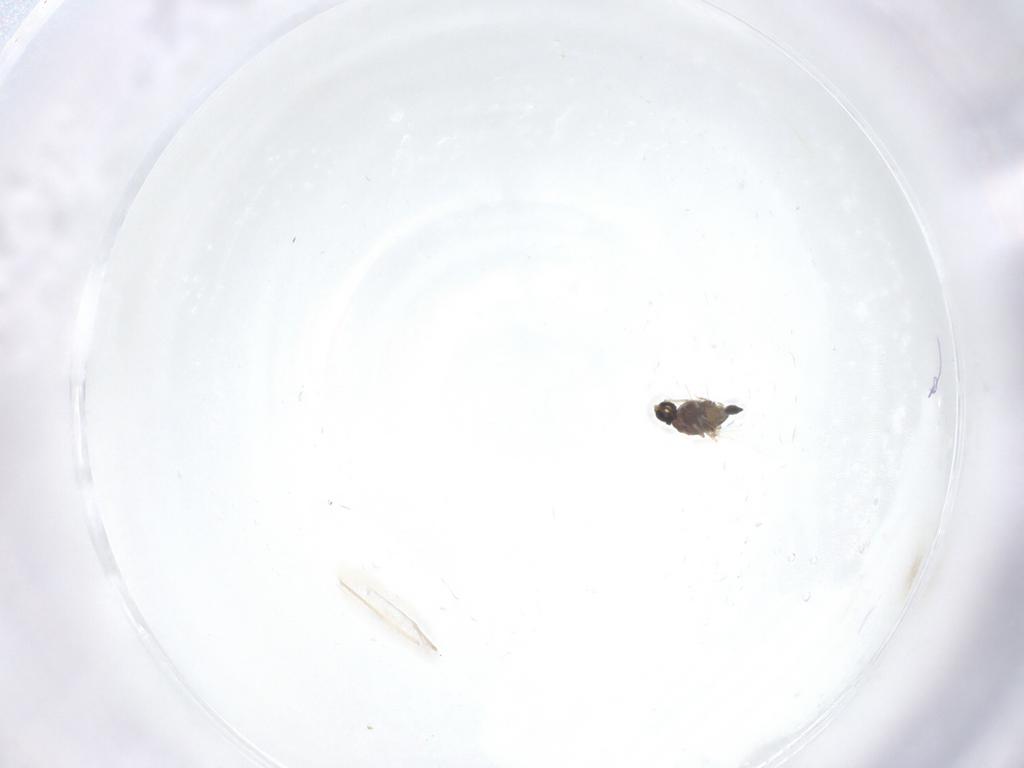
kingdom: Animalia
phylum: Arthropoda
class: Insecta
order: Diptera
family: Chironomidae
